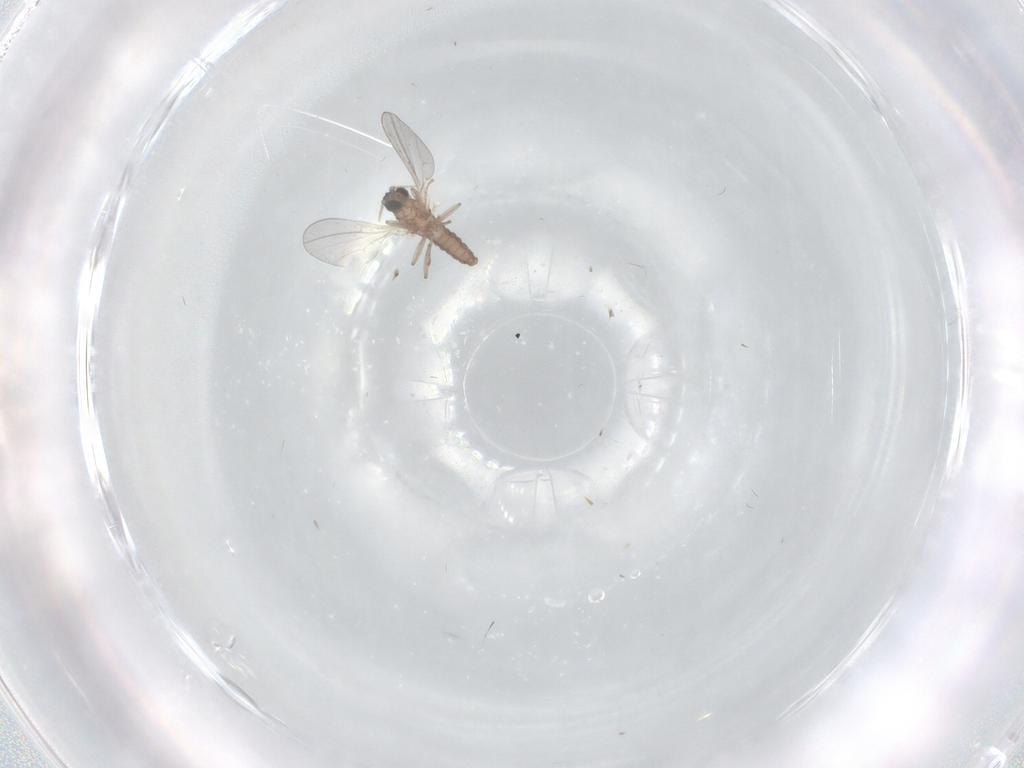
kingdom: Animalia
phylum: Arthropoda
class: Insecta
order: Diptera
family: Cecidomyiidae
